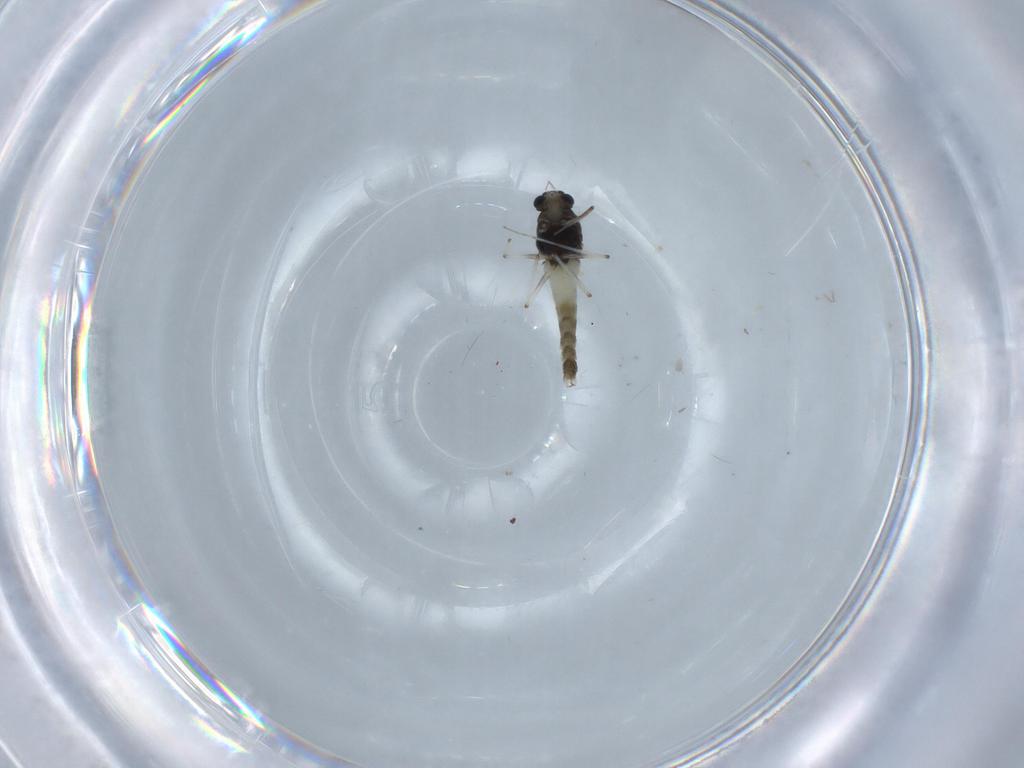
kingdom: Animalia
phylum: Arthropoda
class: Insecta
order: Diptera
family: Chironomidae
